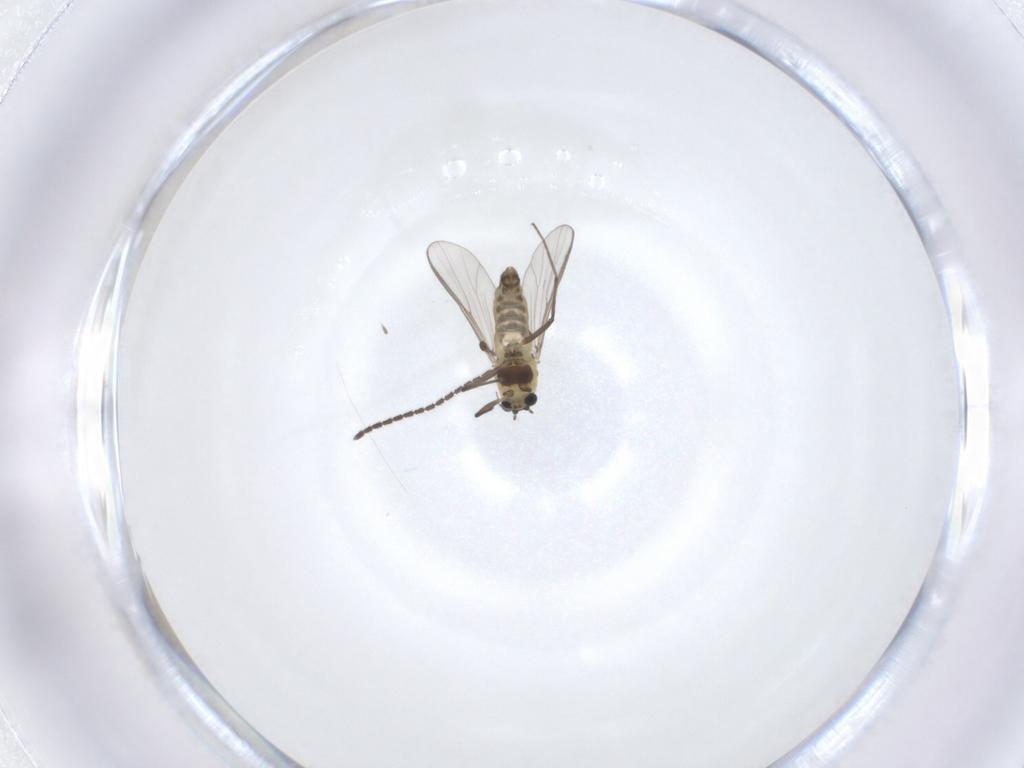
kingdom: Animalia
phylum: Arthropoda
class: Insecta
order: Diptera
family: Chironomidae
